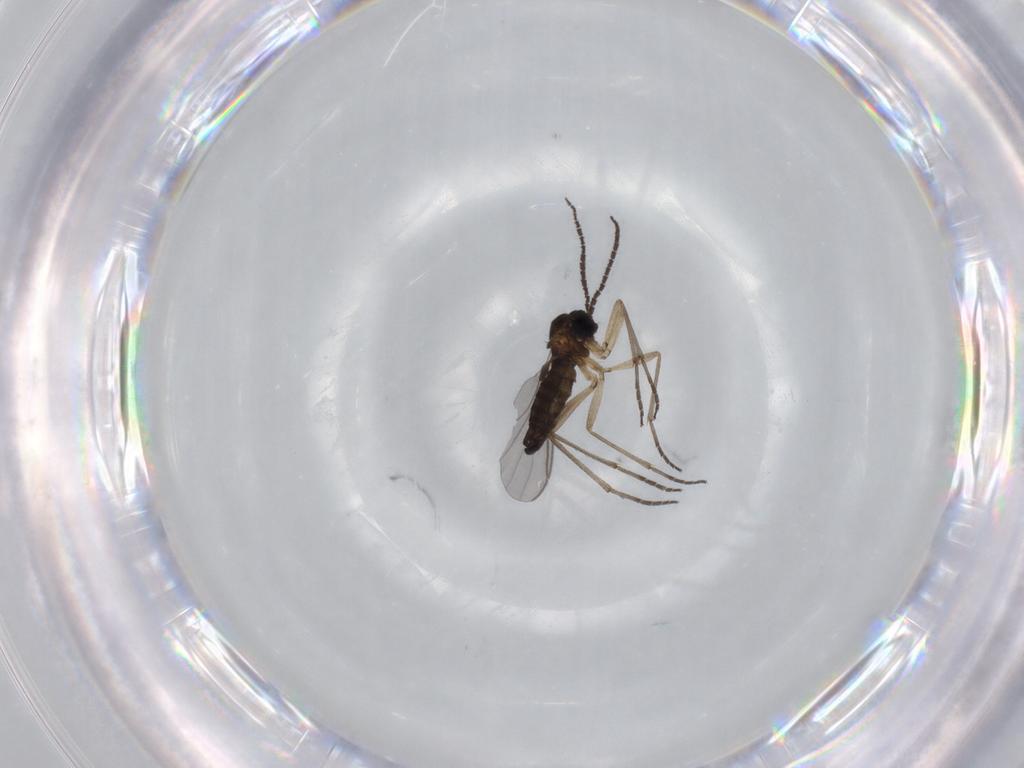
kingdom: Animalia
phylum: Arthropoda
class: Insecta
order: Diptera
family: Sciaridae
